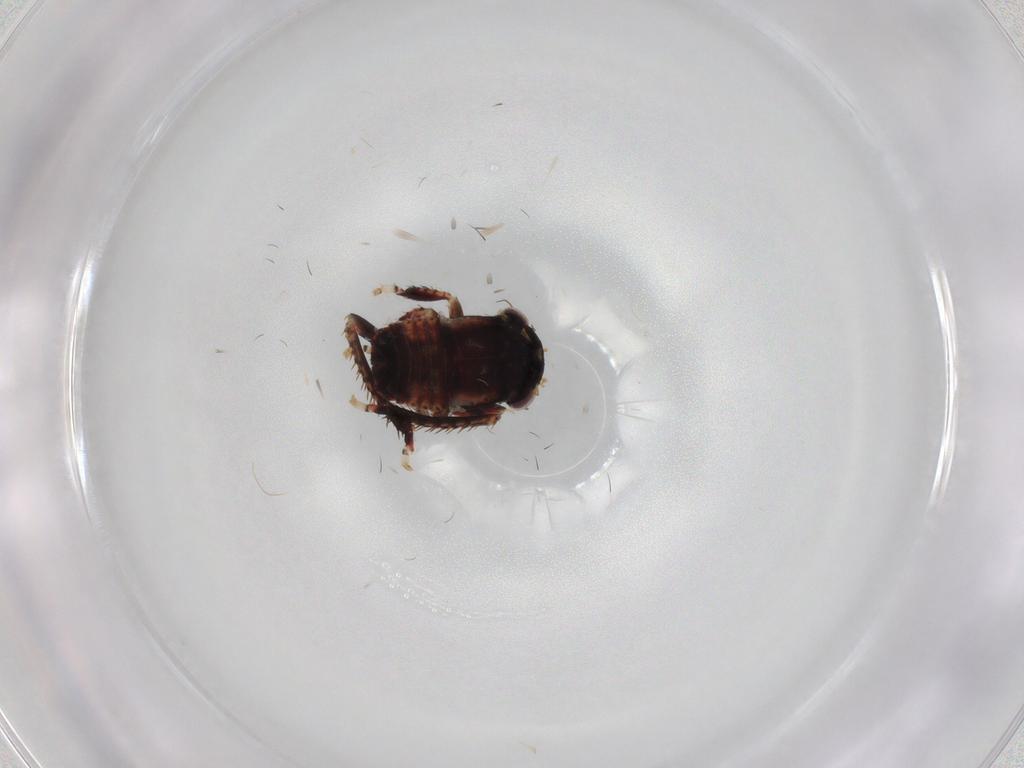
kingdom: Animalia
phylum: Arthropoda
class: Insecta
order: Hemiptera
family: Cicadellidae
